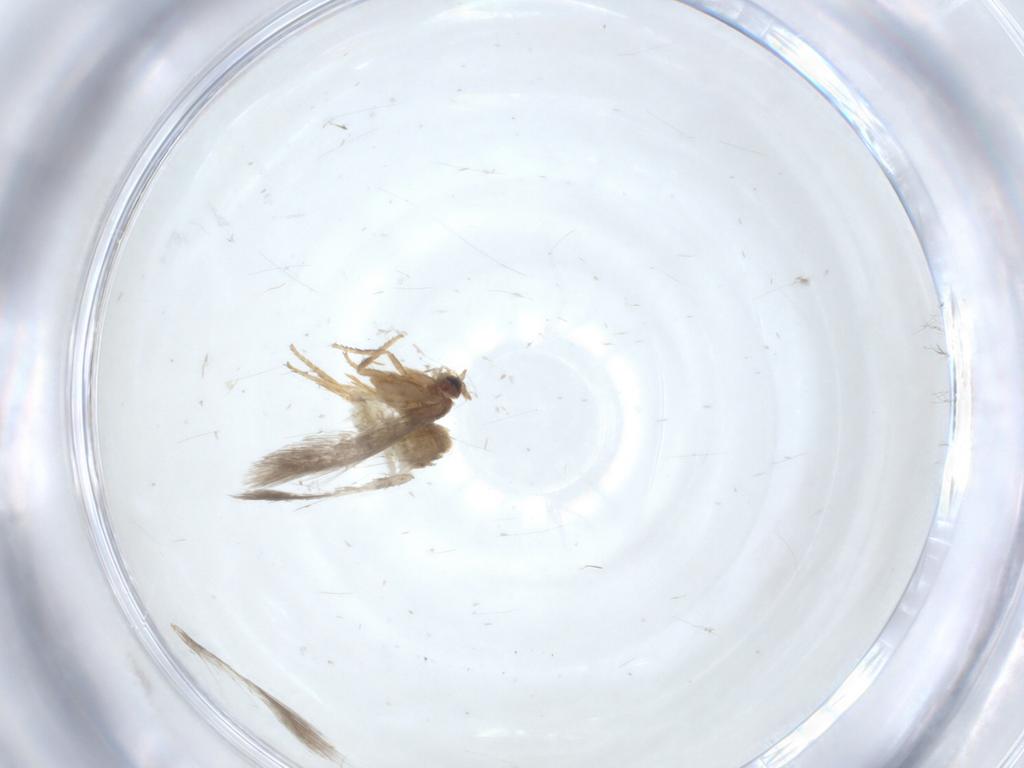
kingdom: Animalia
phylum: Arthropoda
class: Insecta
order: Lepidoptera
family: Nepticulidae
